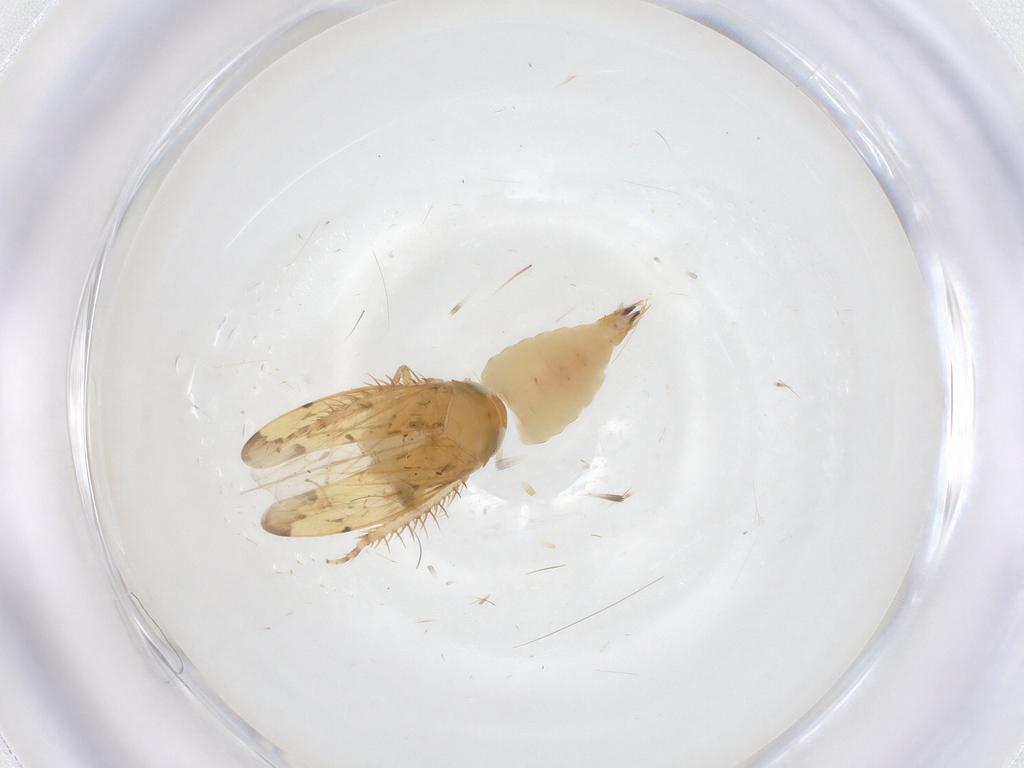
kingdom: Animalia
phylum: Arthropoda
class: Insecta
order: Hemiptera
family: Cicadellidae
